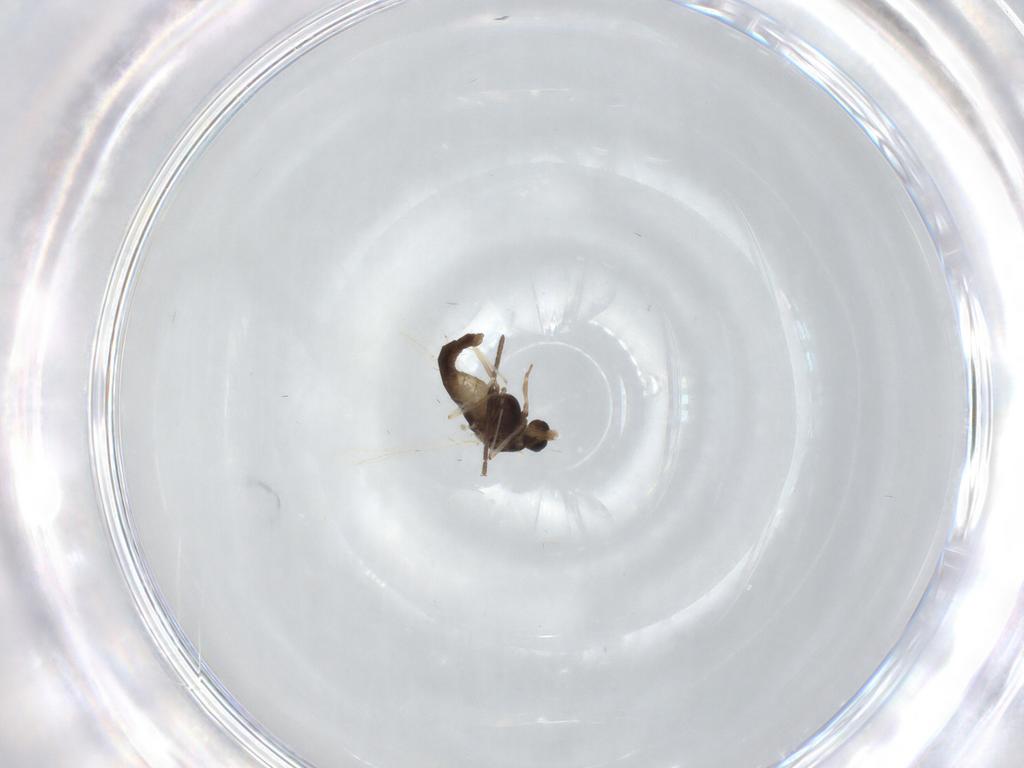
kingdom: Animalia
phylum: Arthropoda
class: Insecta
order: Diptera
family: Chironomidae
